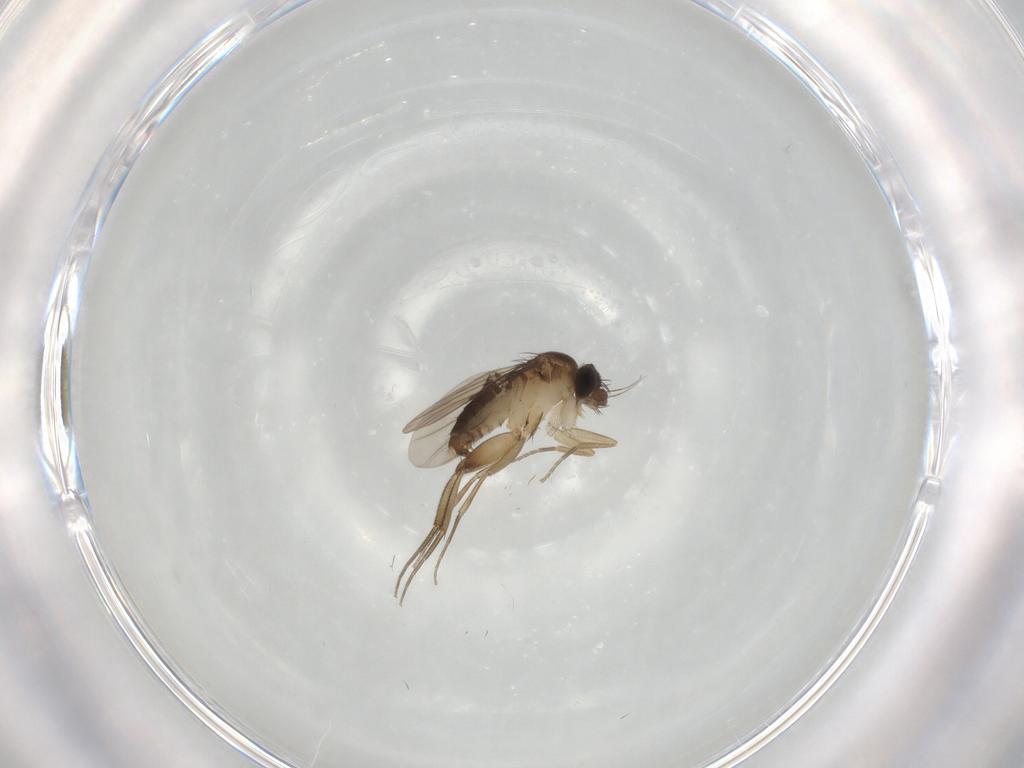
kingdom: Animalia
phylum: Arthropoda
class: Insecta
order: Diptera
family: Phoridae
